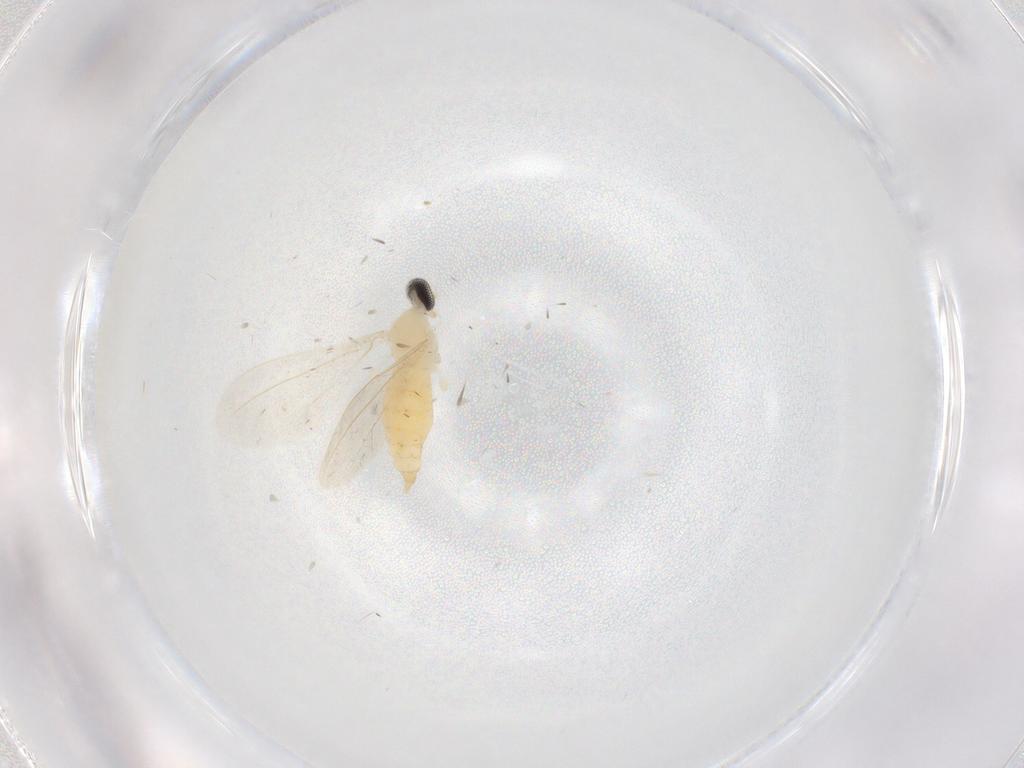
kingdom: Animalia
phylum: Arthropoda
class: Insecta
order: Diptera
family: Cecidomyiidae
